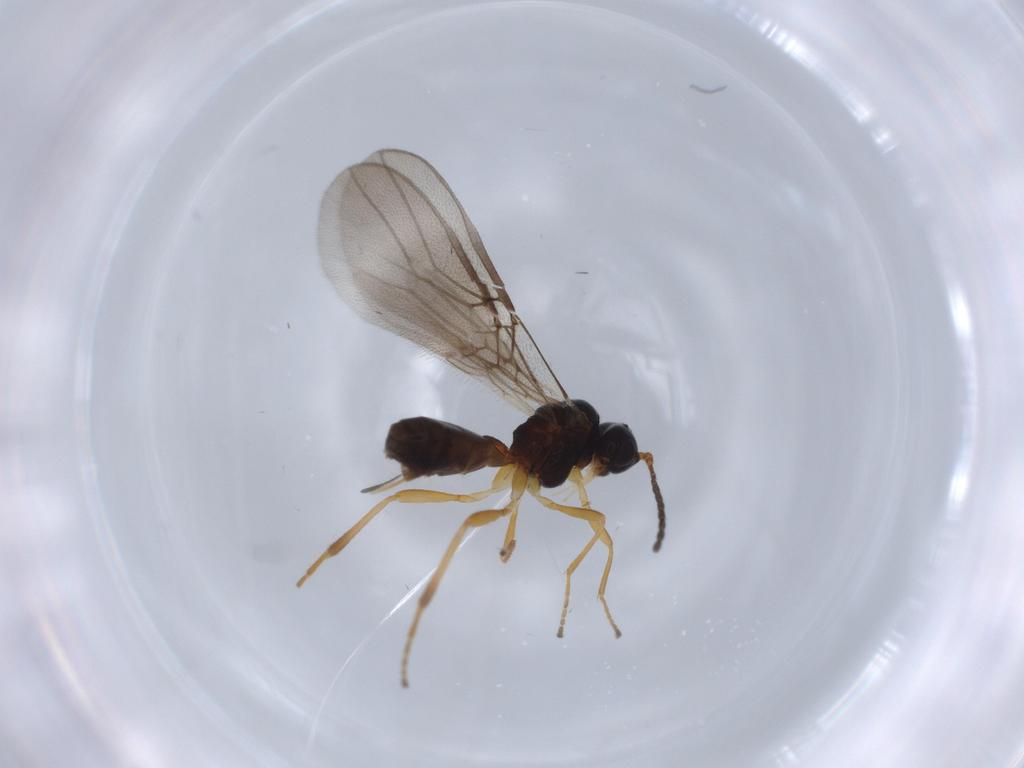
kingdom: Animalia
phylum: Arthropoda
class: Insecta
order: Hymenoptera
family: Braconidae
